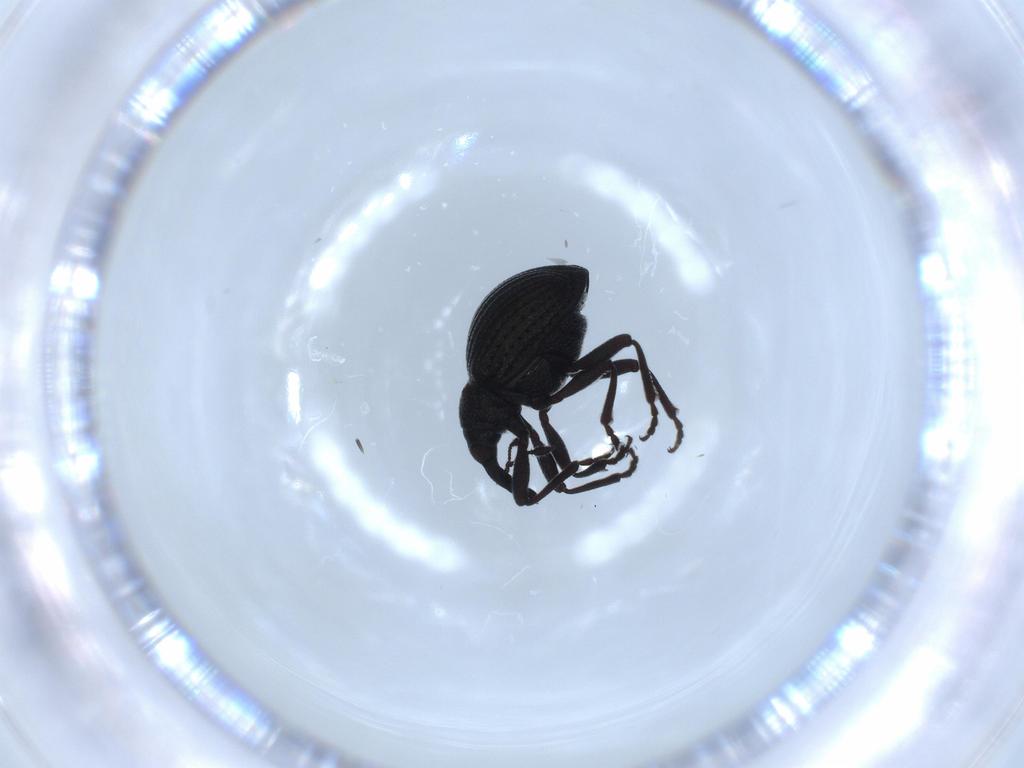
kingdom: Animalia
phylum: Arthropoda
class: Insecta
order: Coleoptera
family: Brentidae
